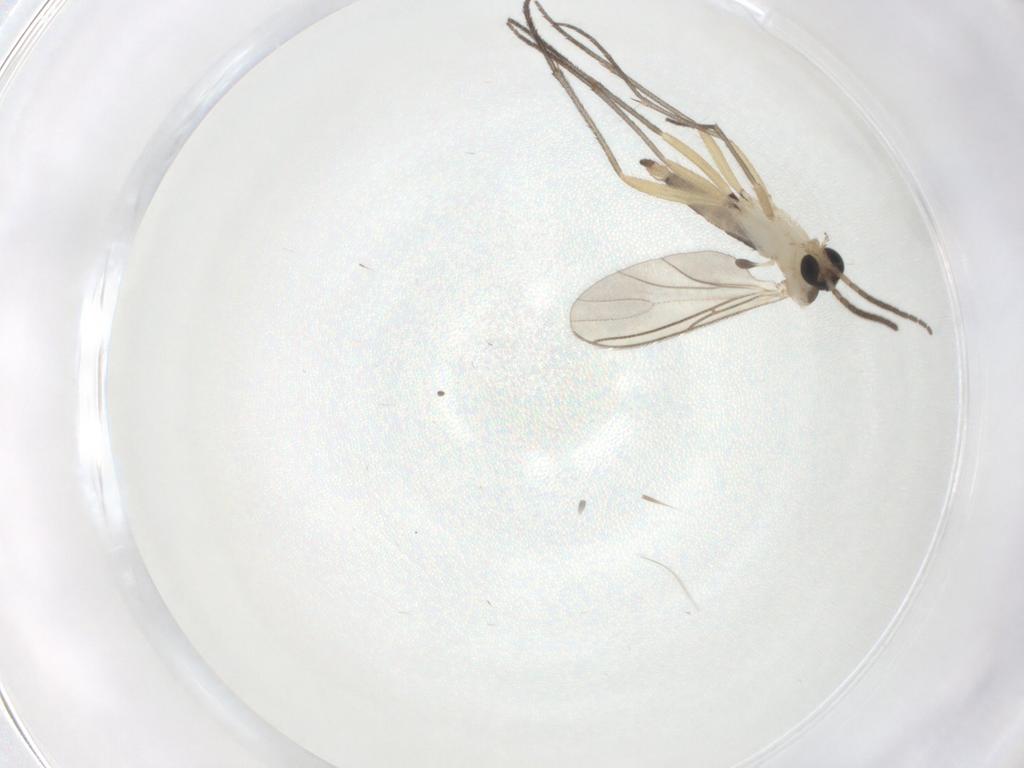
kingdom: Animalia
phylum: Arthropoda
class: Insecta
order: Diptera
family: Sciaridae
